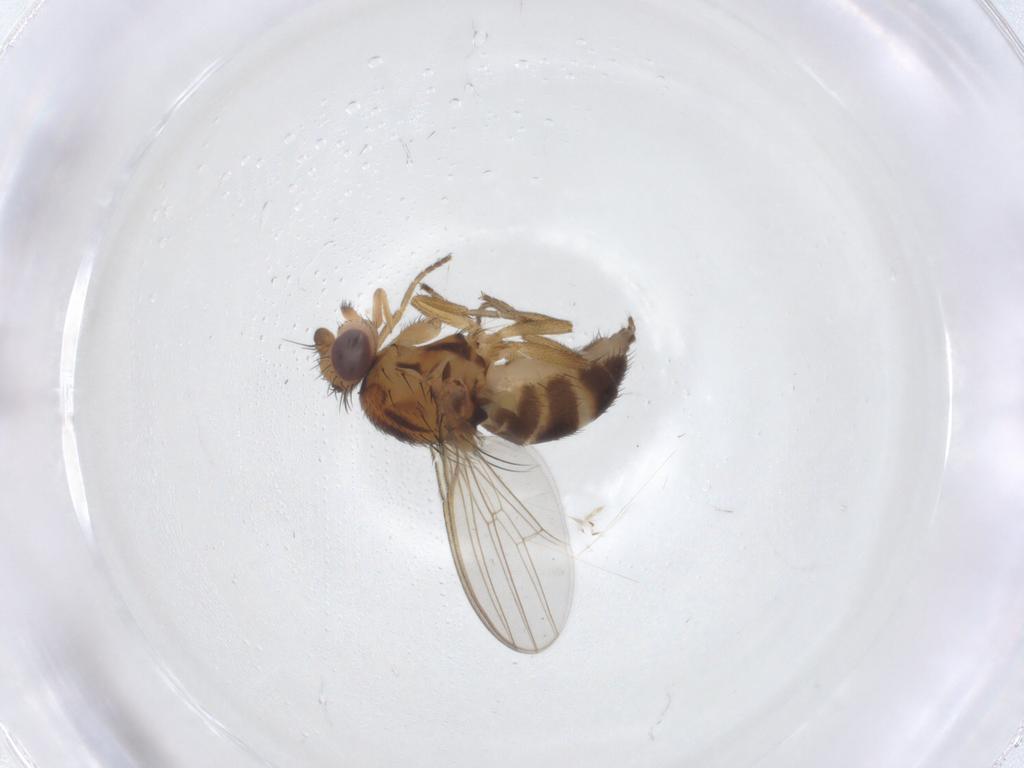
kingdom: Animalia
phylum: Arthropoda
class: Insecta
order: Diptera
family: Milichiidae
